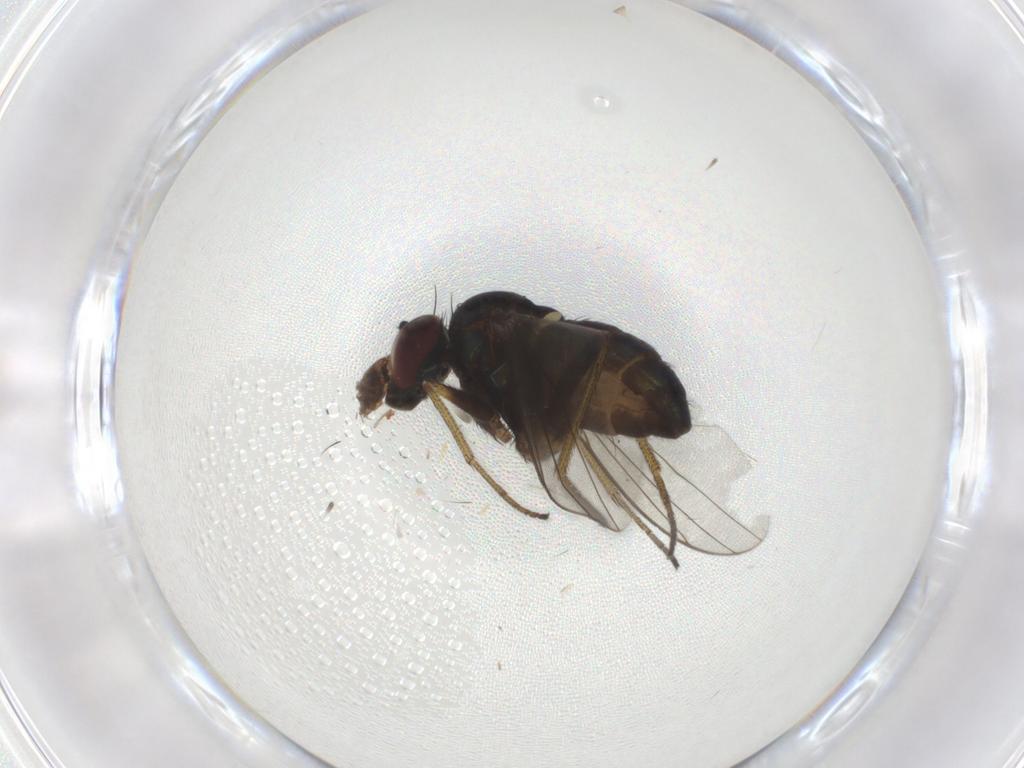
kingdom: Animalia
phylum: Arthropoda
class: Insecta
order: Diptera
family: Dolichopodidae
